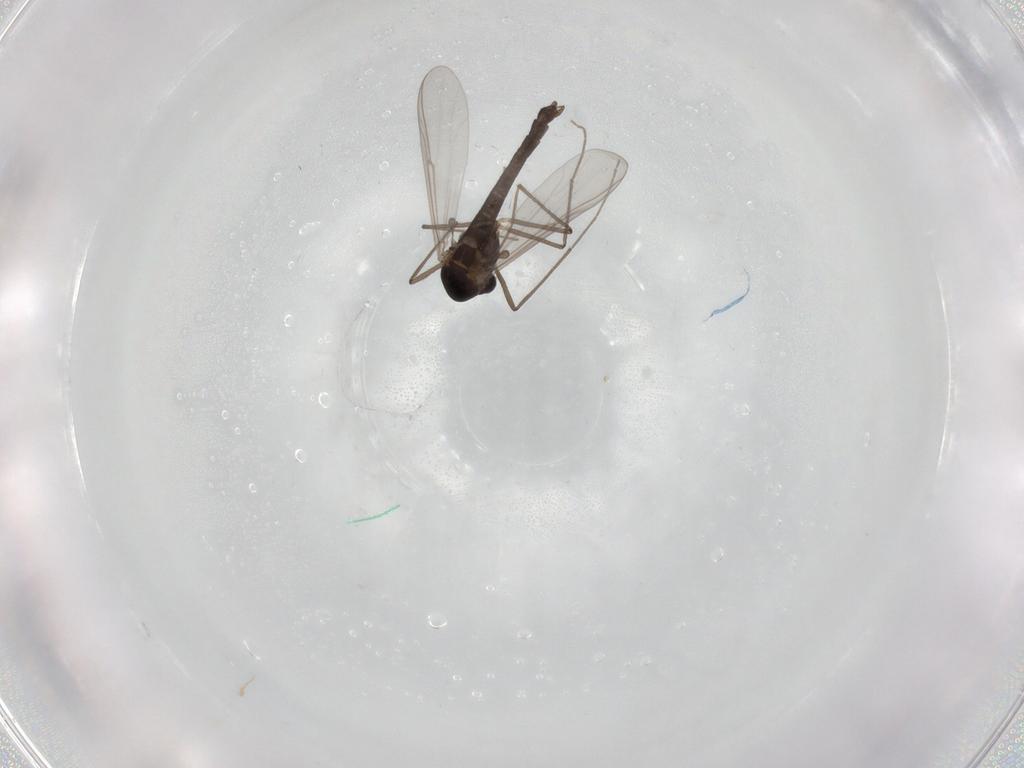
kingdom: Animalia
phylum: Arthropoda
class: Insecta
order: Diptera
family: Chironomidae
